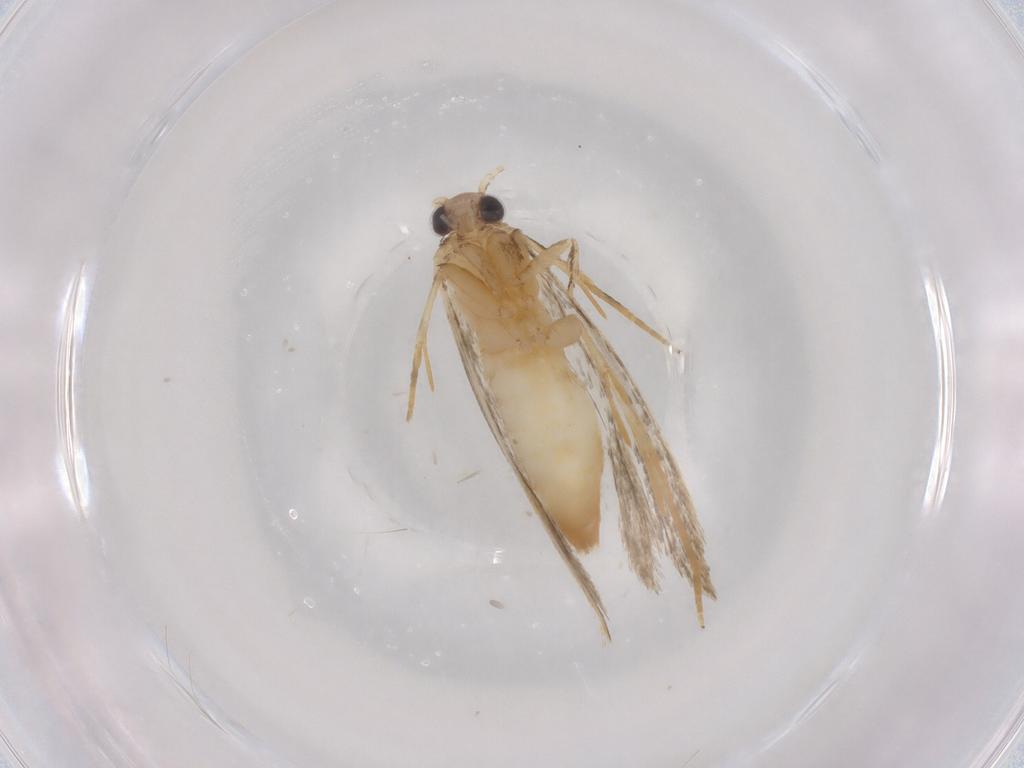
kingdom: Animalia
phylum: Arthropoda
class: Insecta
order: Lepidoptera
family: Tineidae
